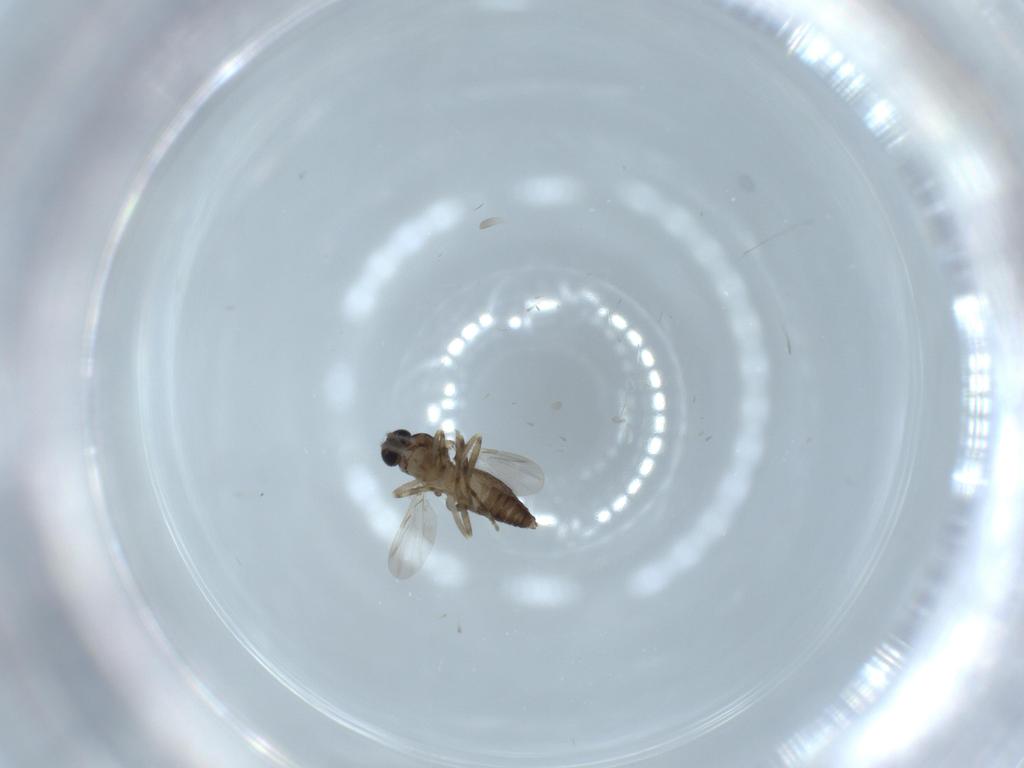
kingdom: Animalia
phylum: Arthropoda
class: Insecta
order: Diptera
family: Ceratopogonidae
